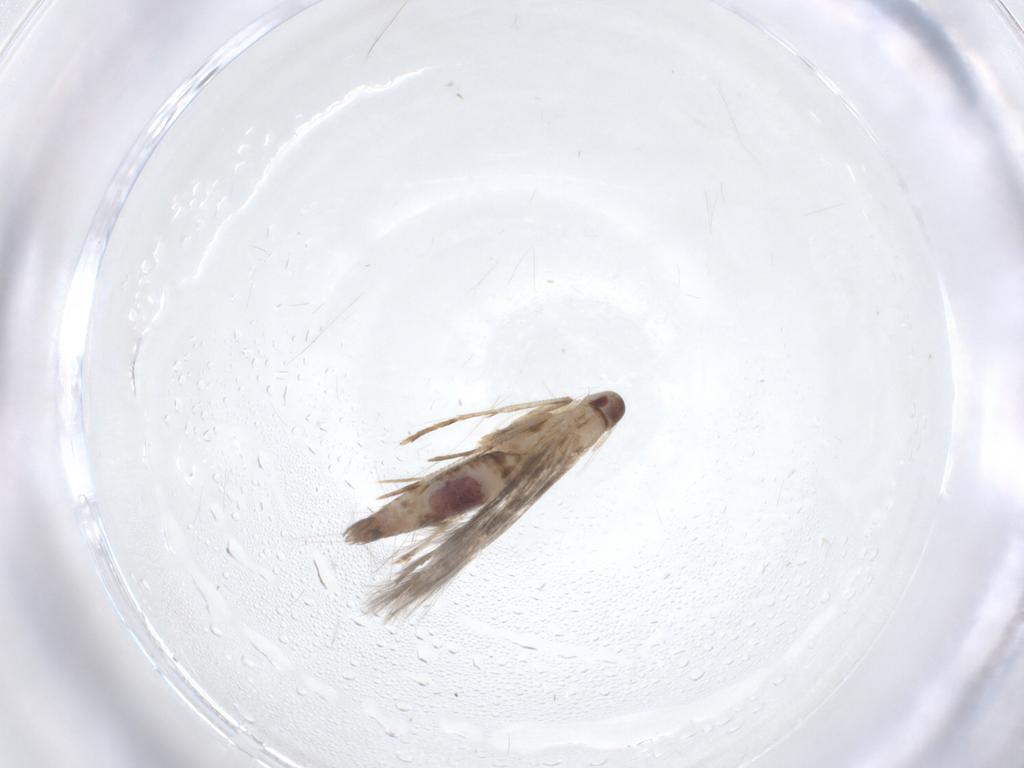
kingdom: Animalia
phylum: Arthropoda
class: Insecta
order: Lepidoptera
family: Cosmopterigidae
